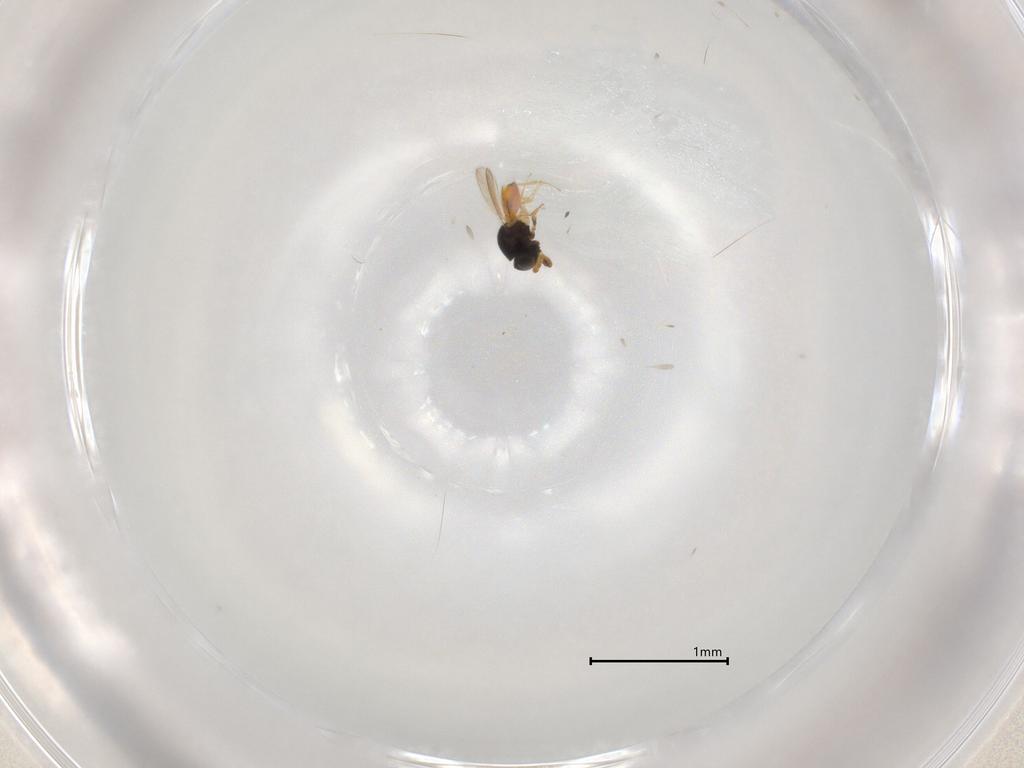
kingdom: Animalia
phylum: Arthropoda
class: Insecta
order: Hymenoptera
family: Scelionidae
